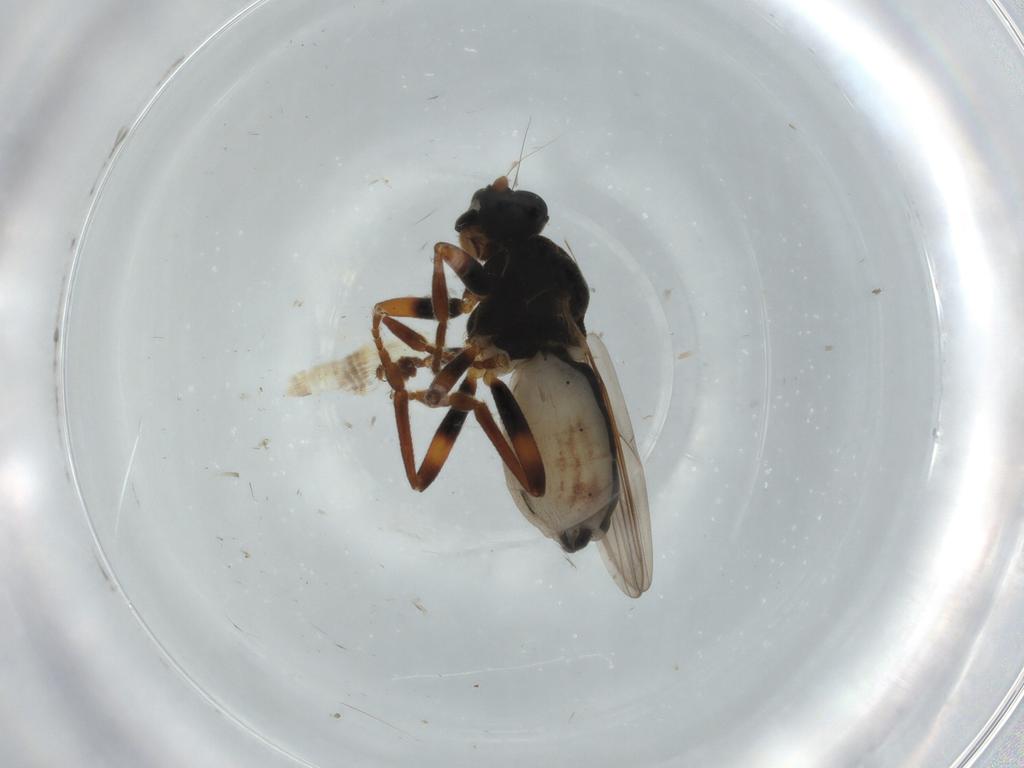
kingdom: Animalia
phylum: Arthropoda
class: Insecta
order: Diptera
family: Sphaeroceridae
